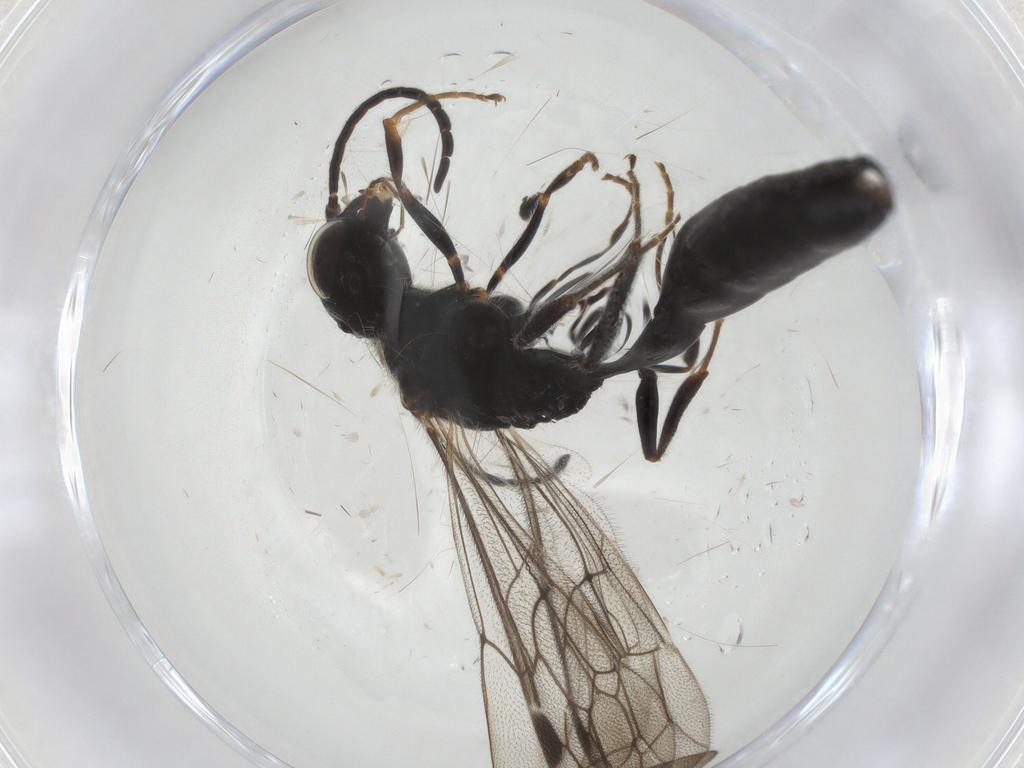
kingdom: Animalia
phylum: Arthropoda
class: Insecta
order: Hymenoptera
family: Thynnidae
